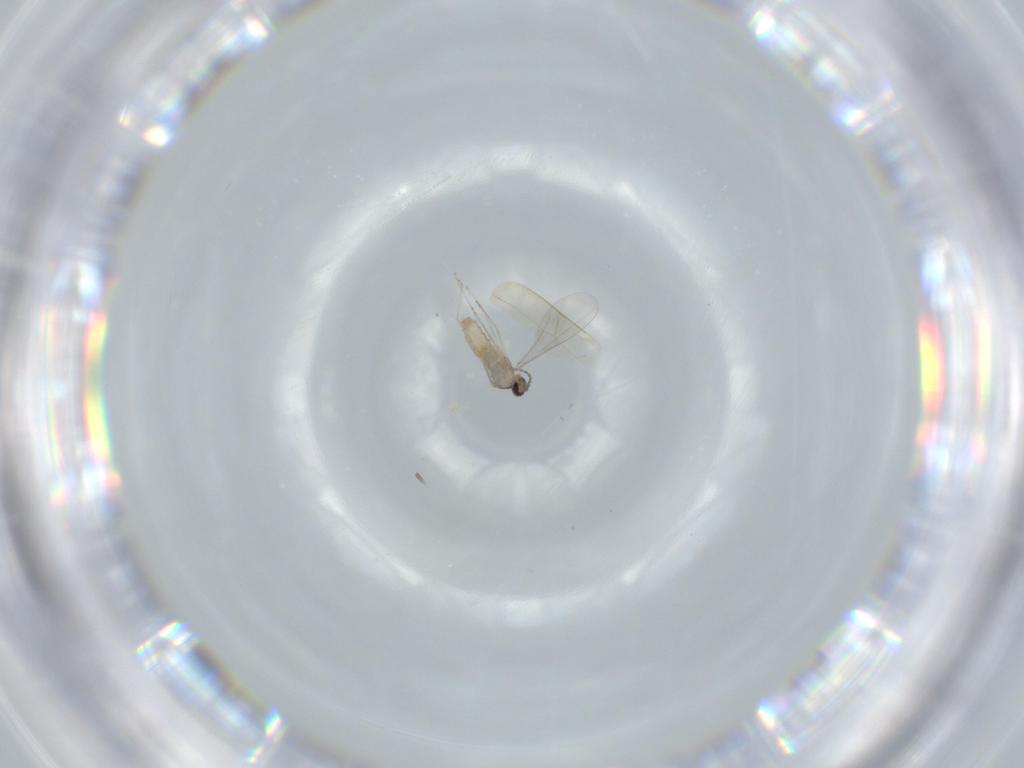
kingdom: Animalia
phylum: Arthropoda
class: Insecta
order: Diptera
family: Cecidomyiidae
